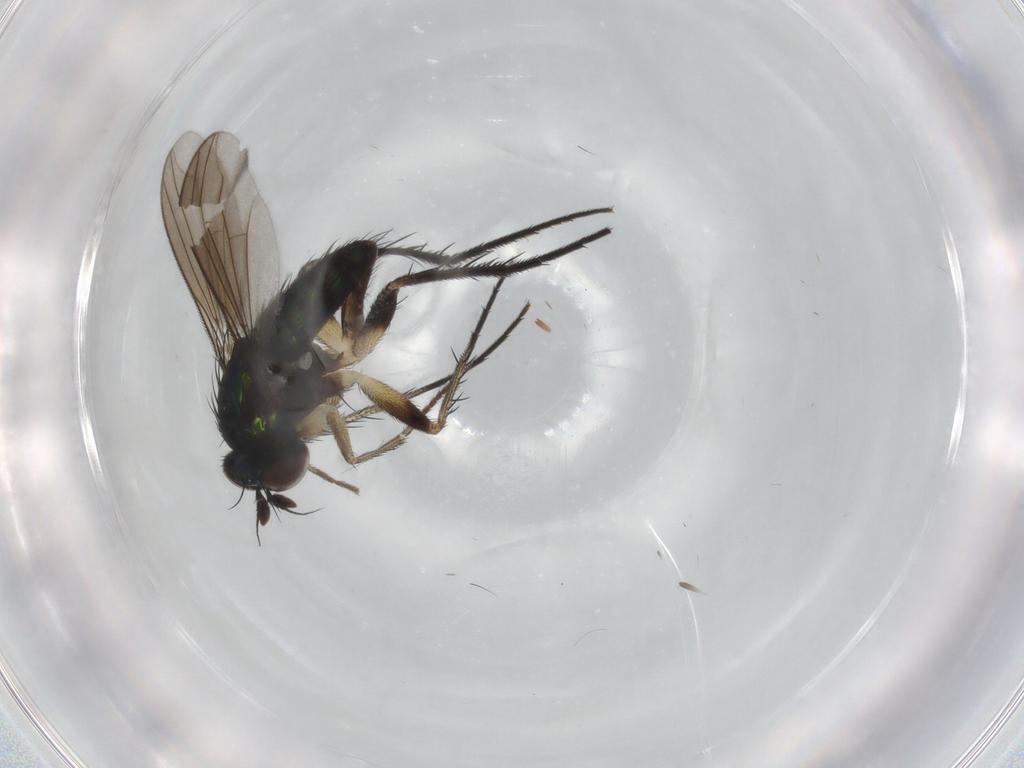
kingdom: Animalia
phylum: Arthropoda
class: Insecta
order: Diptera
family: Dolichopodidae
